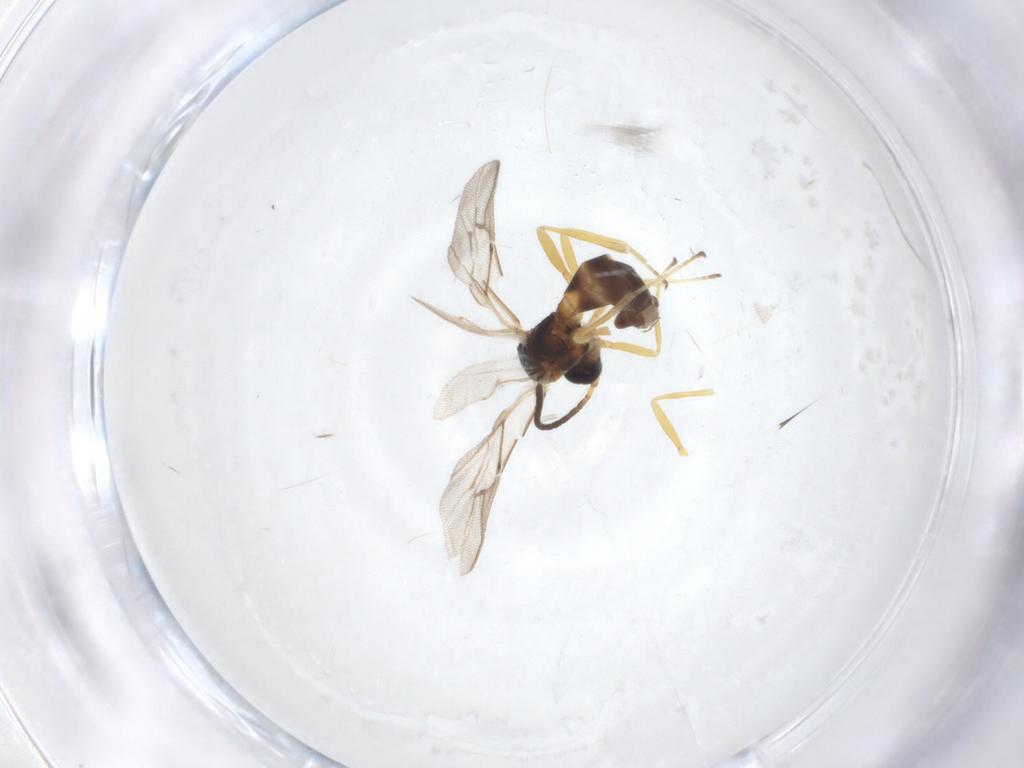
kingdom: Animalia
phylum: Arthropoda
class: Insecta
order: Hymenoptera
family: Braconidae
